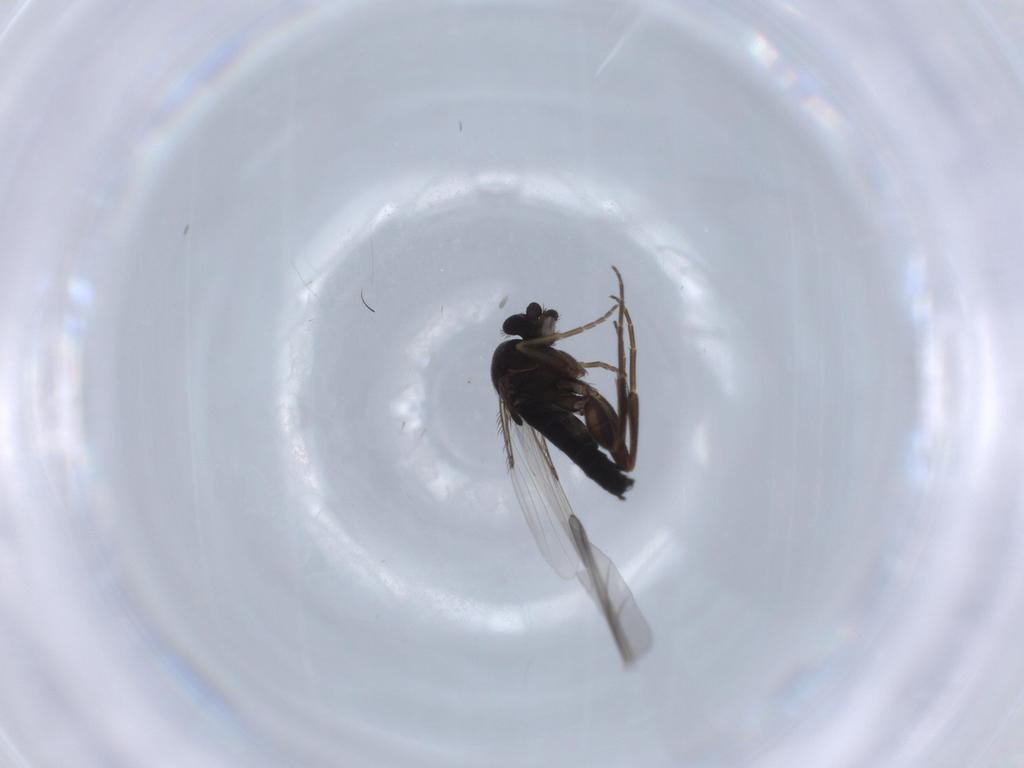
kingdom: Animalia
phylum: Arthropoda
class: Insecta
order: Diptera
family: Phoridae
